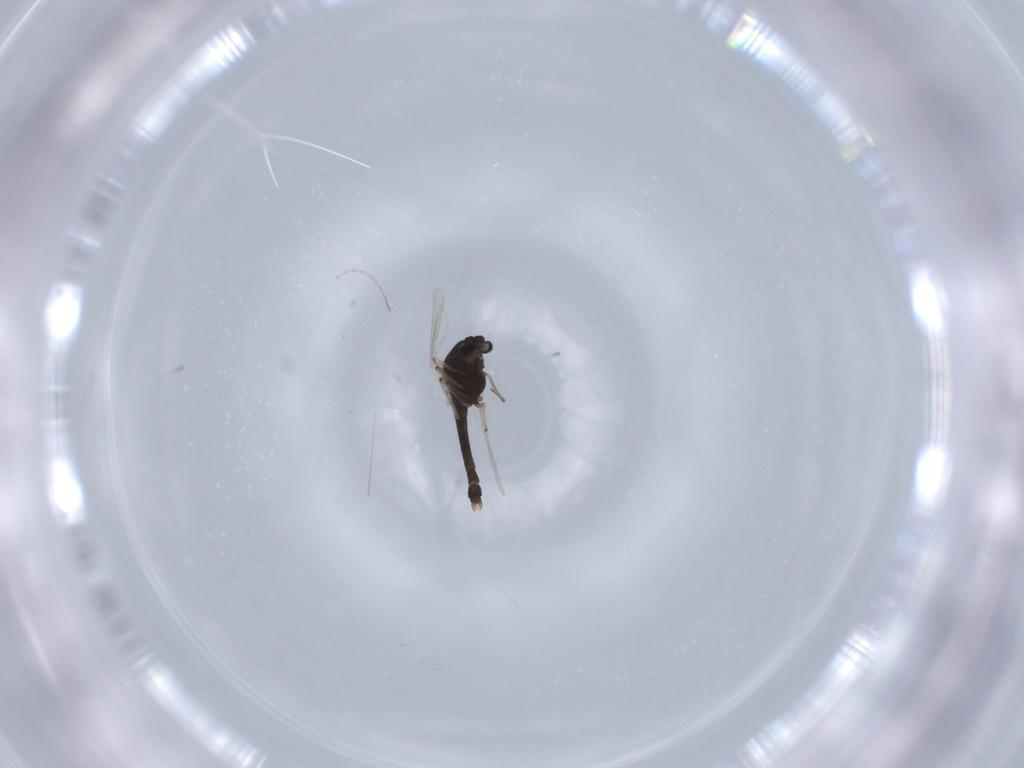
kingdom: Animalia
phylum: Arthropoda
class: Insecta
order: Diptera
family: Chironomidae
